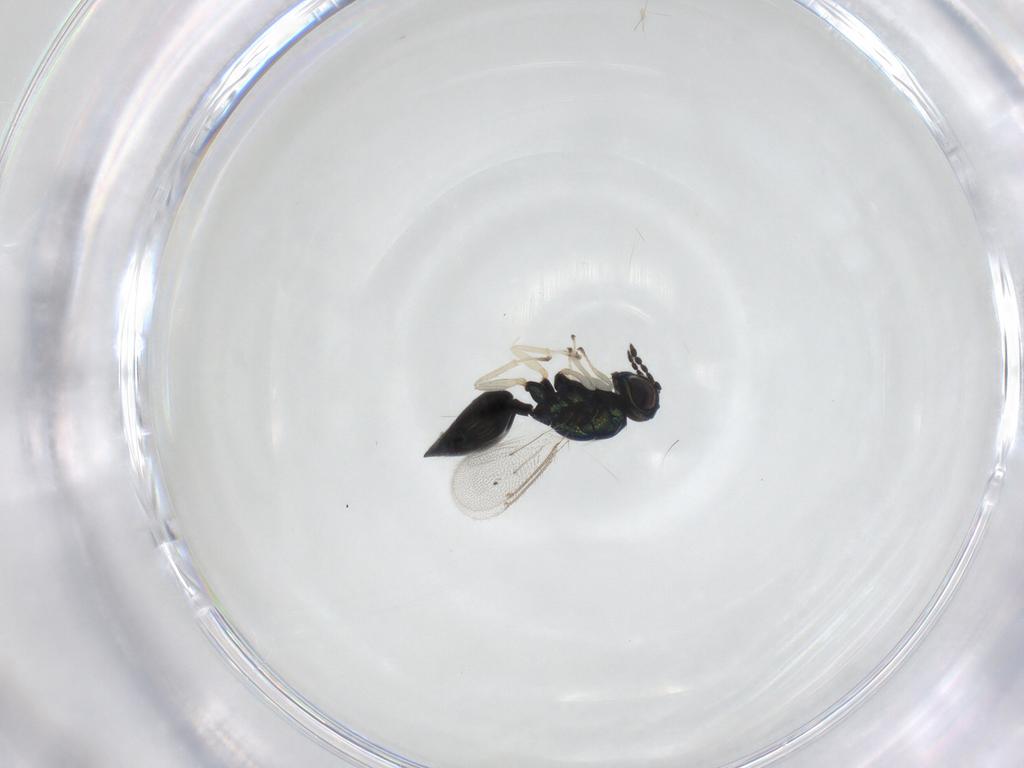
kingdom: Animalia
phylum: Arthropoda
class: Insecta
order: Hymenoptera
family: Eulophidae
